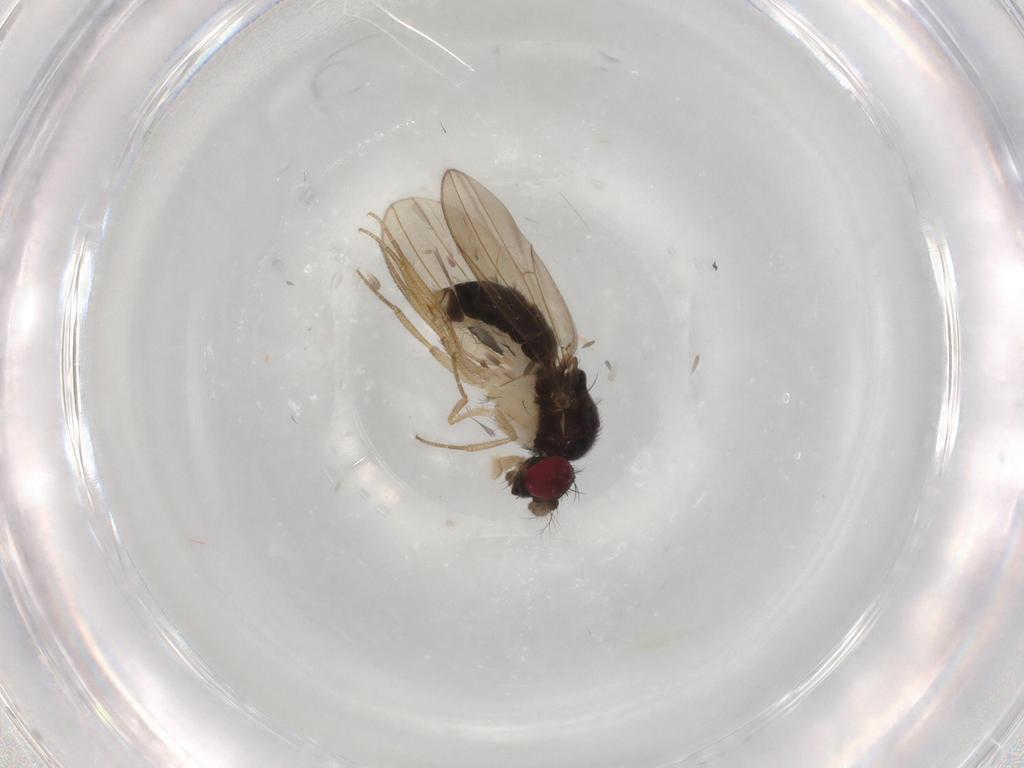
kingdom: Animalia
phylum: Arthropoda
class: Insecta
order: Diptera
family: Drosophilidae
